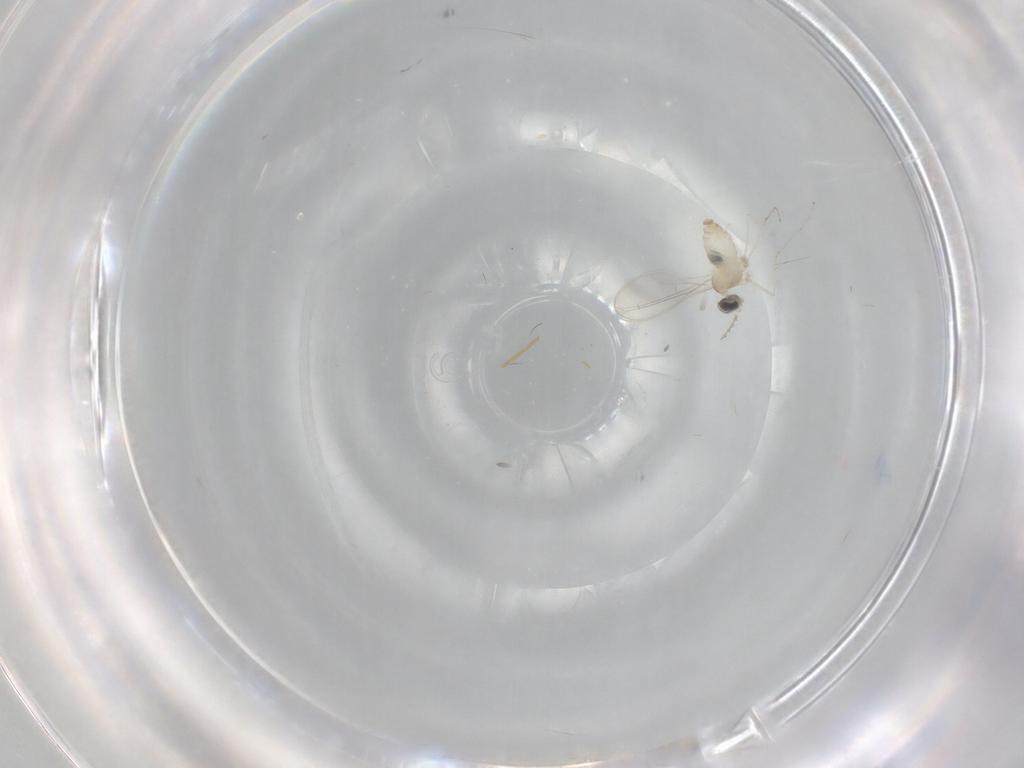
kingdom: Animalia
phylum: Arthropoda
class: Insecta
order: Diptera
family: Cecidomyiidae
